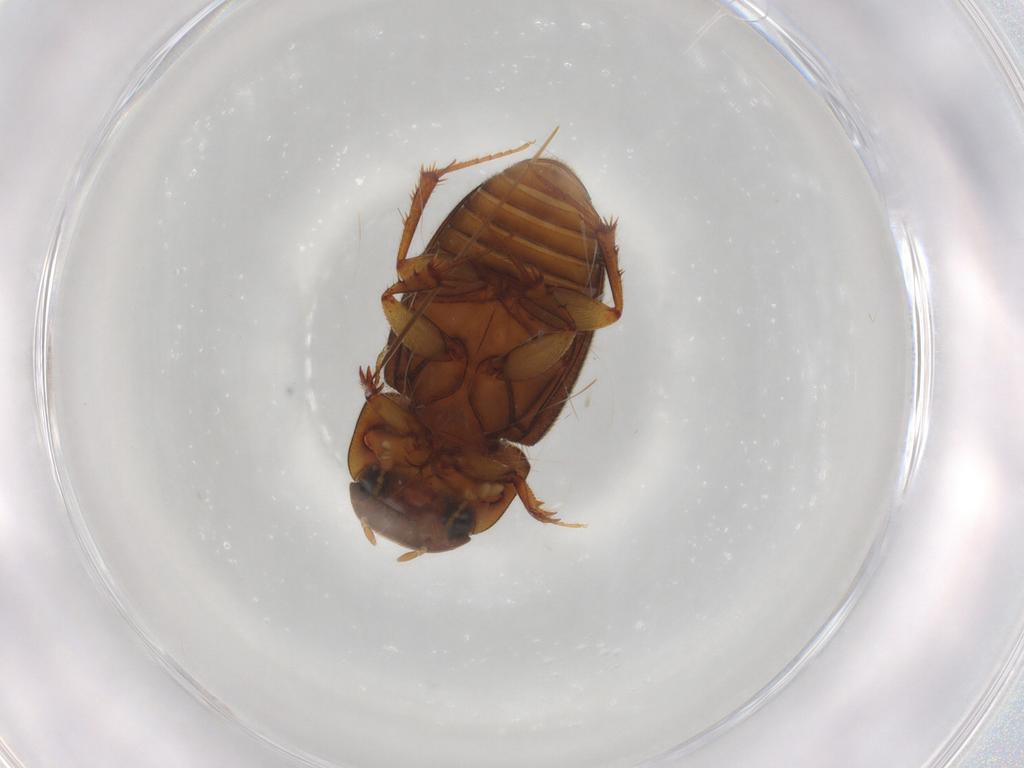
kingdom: Animalia
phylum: Arthropoda
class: Insecta
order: Coleoptera
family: Scarabaeidae
